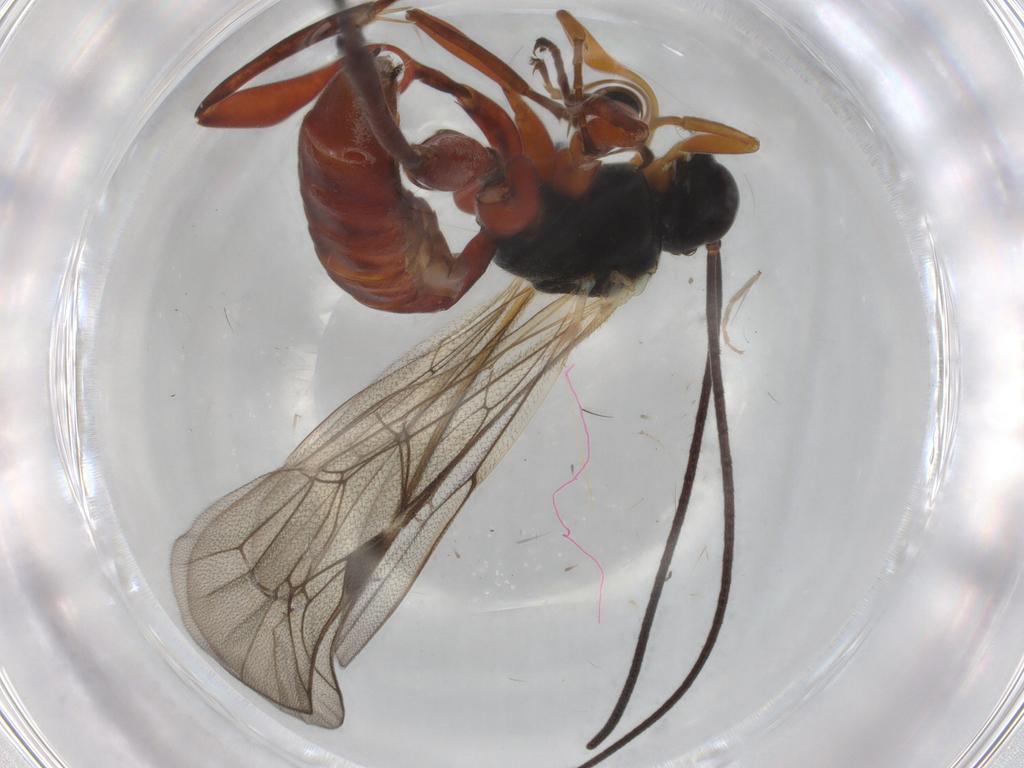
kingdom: Animalia
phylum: Arthropoda
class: Insecta
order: Hymenoptera
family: Ichneumonidae
